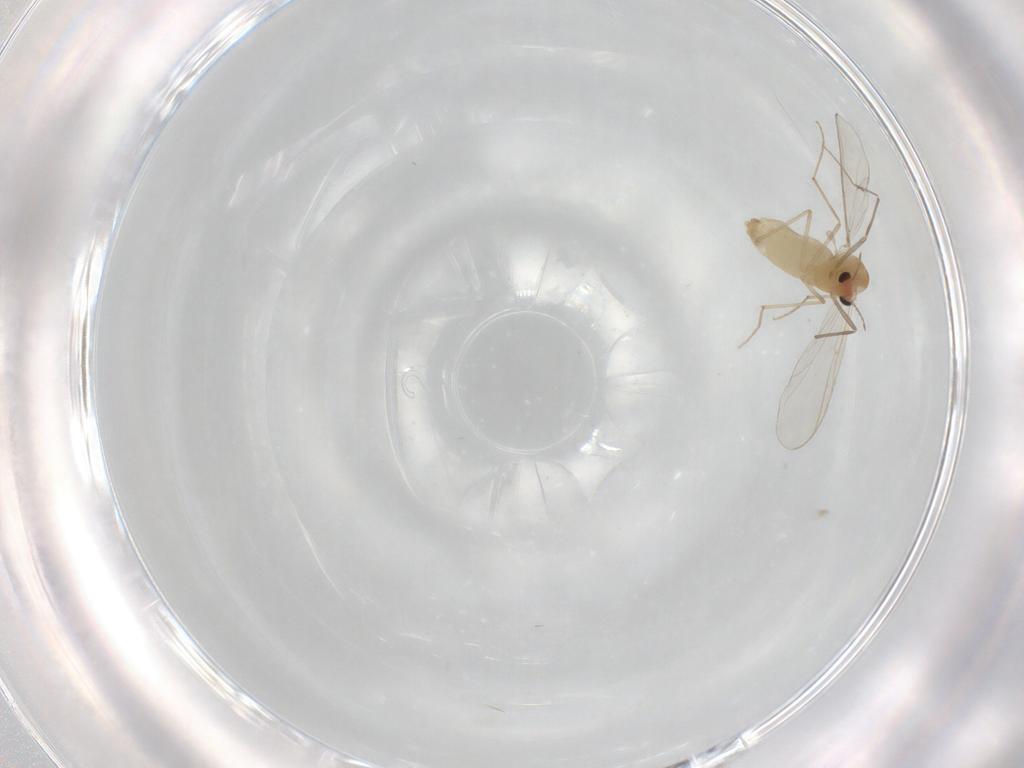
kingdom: Animalia
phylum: Arthropoda
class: Insecta
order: Diptera
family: Chironomidae
